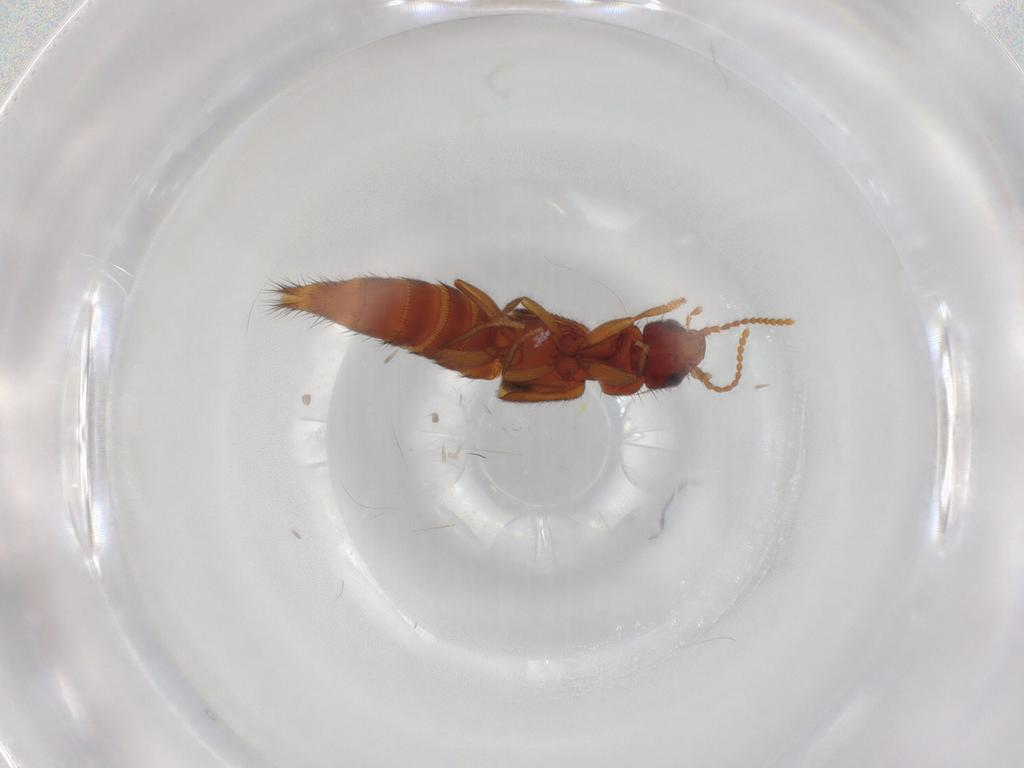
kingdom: Animalia
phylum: Arthropoda
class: Insecta
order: Coleoptera
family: Staphylinidae
